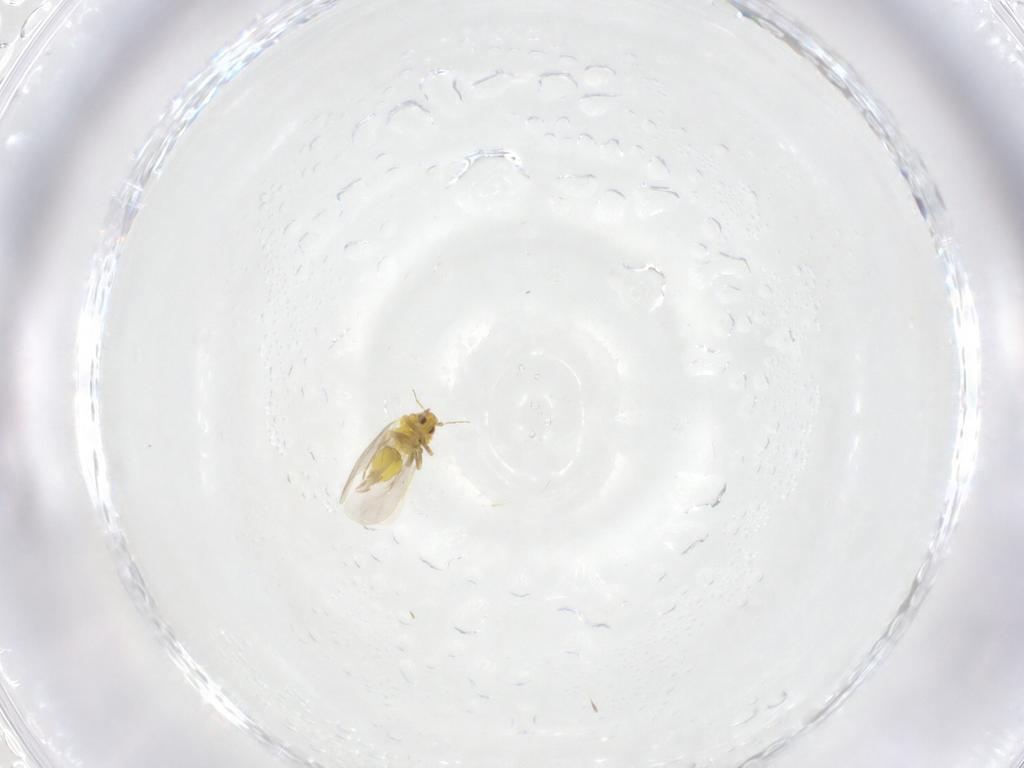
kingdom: Animalia
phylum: Arthropoda
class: Insecta
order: Hemiptera
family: Aleyrodidae
